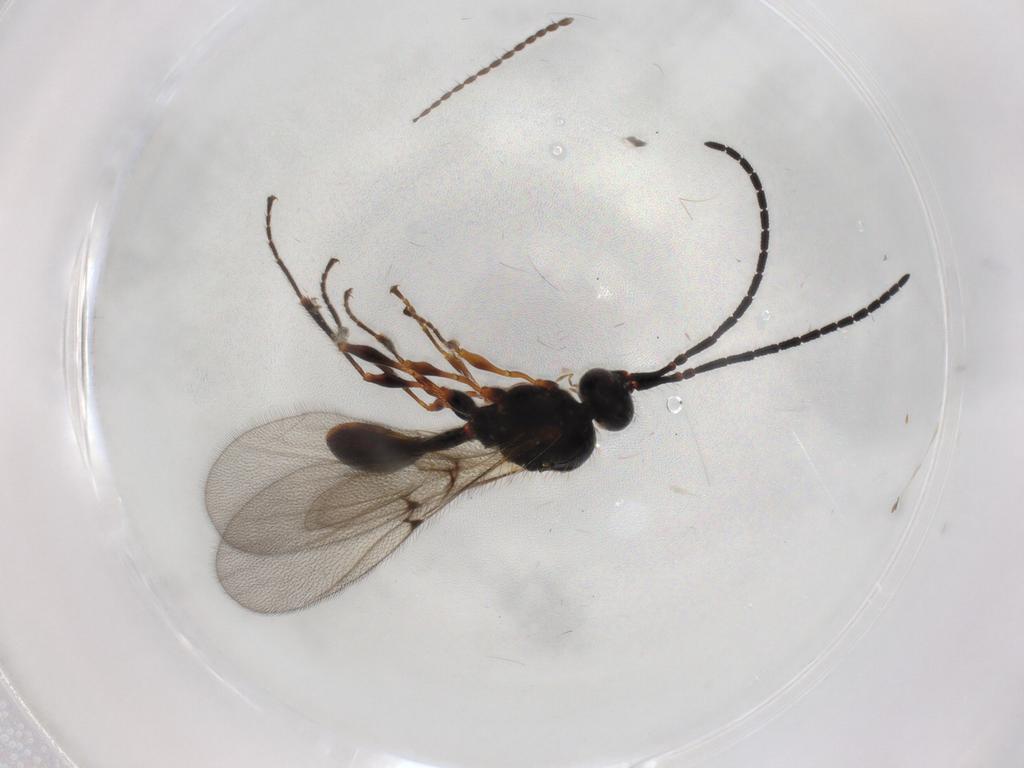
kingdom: Animalia
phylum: Arthropoda
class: Insecta
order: Hymenoptera
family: Diapriidae
